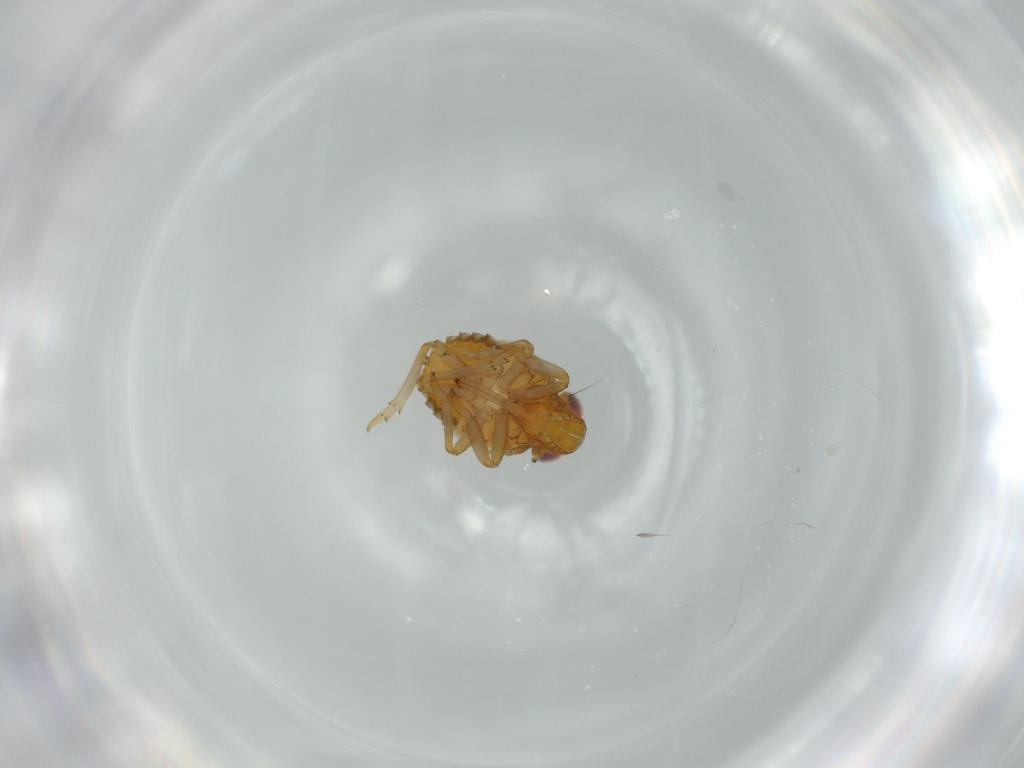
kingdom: Animalia
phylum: Arthropoda
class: Insecta
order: Hemiptera
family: Issidae
